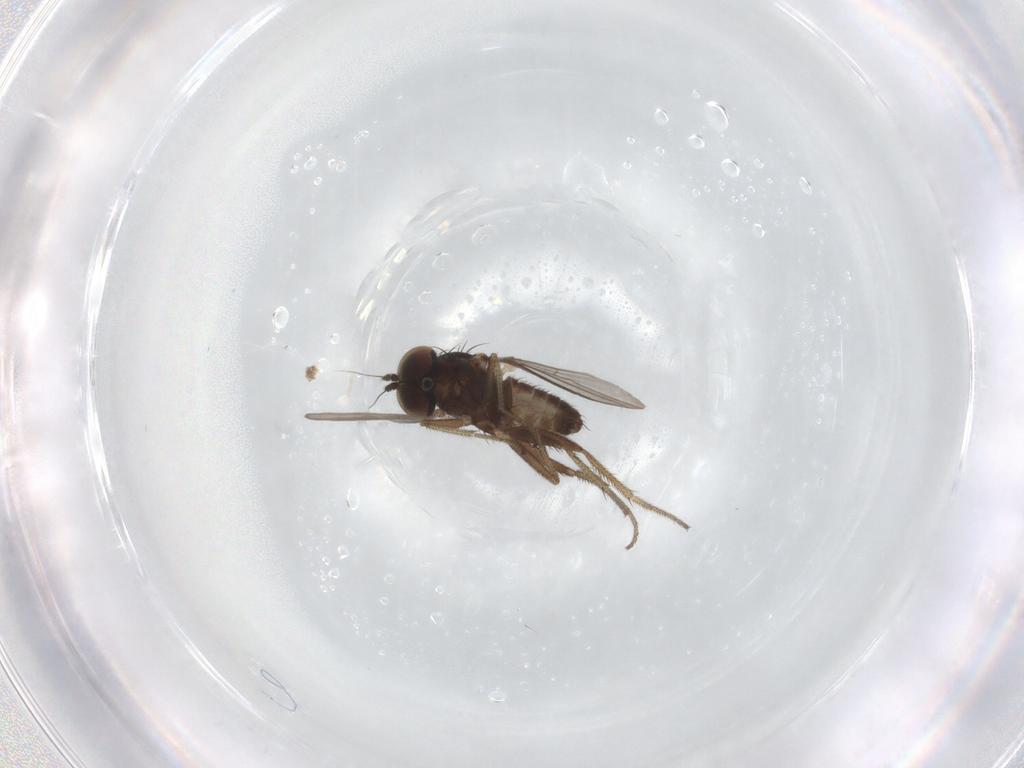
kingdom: Animalia
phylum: Arthropoda
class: Insecta
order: Diptera
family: Dolichopodidae
